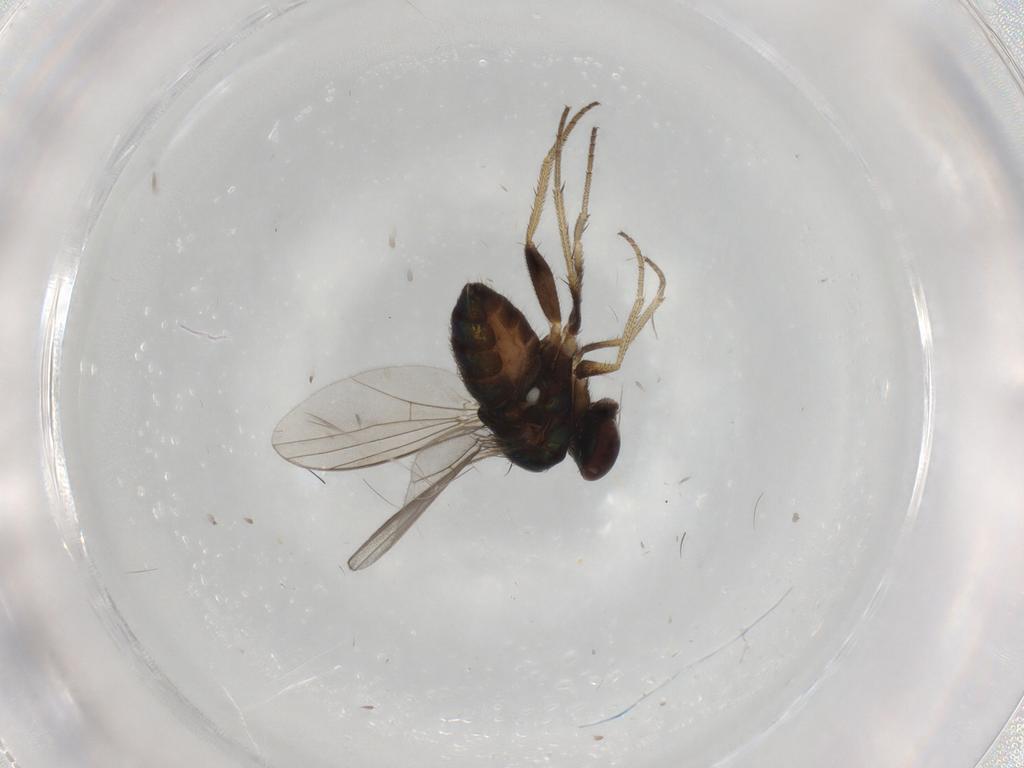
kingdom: Animalia
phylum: Arthropoda
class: Insecta
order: Diptera
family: Dolichopodidae
